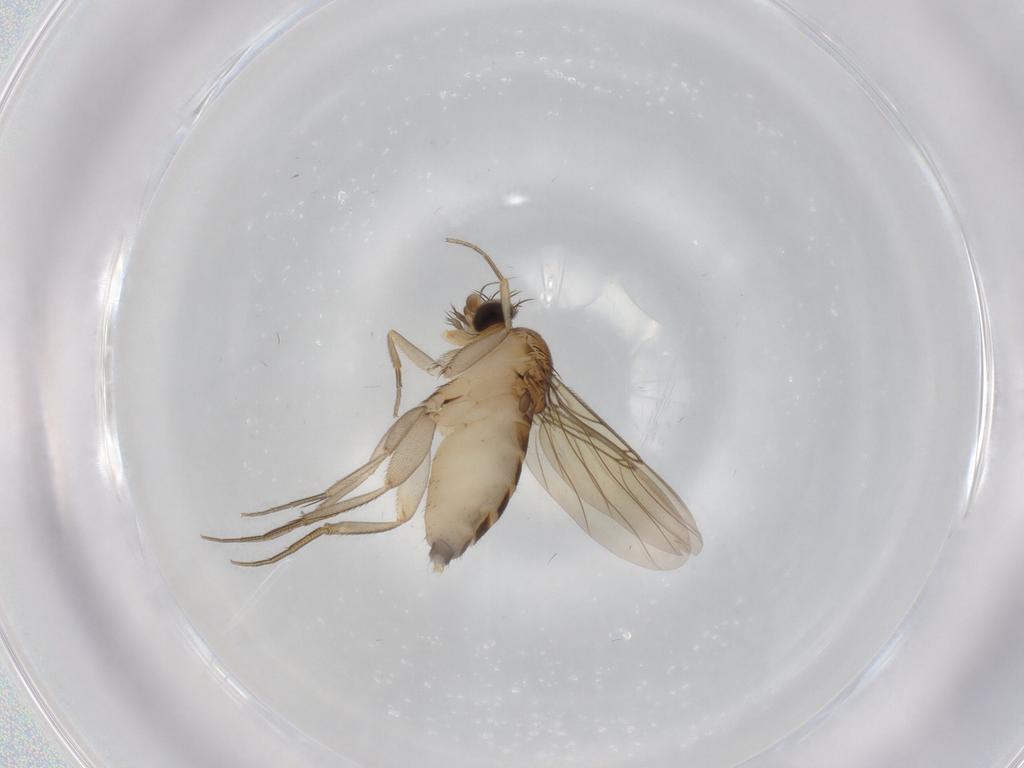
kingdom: Animalia
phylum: Arthropoda
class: Insecta
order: Diptera
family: Phoridae
